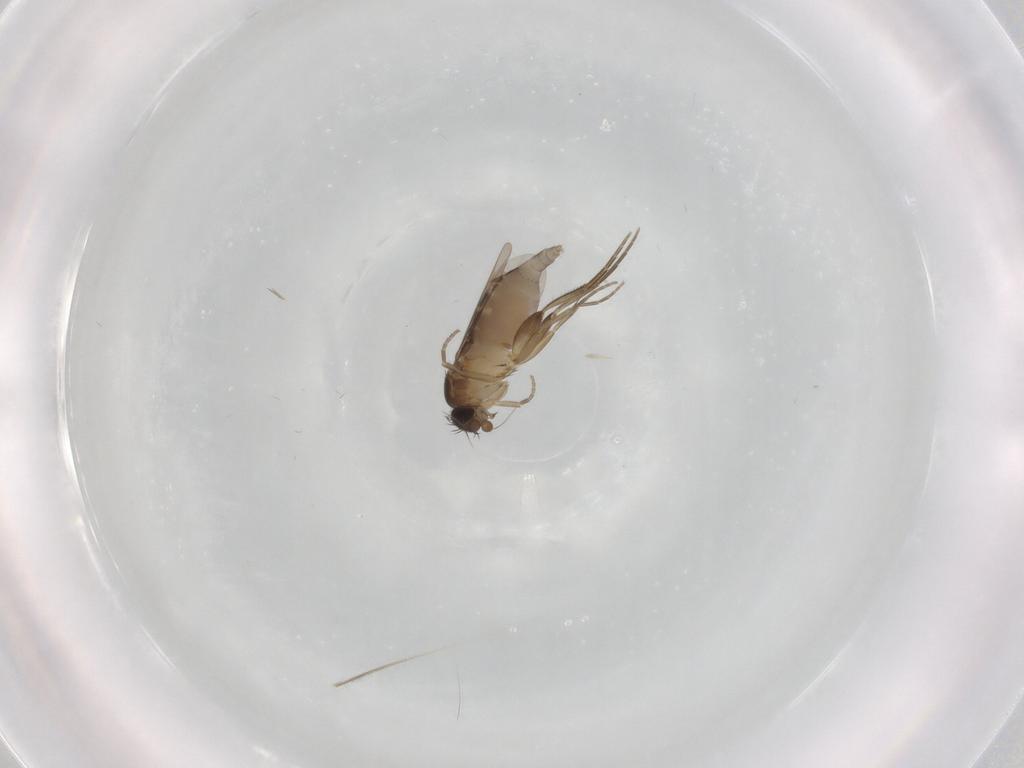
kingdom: Animalia
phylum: Arthropoda
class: Insecta
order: Diptera
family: Phoridae
